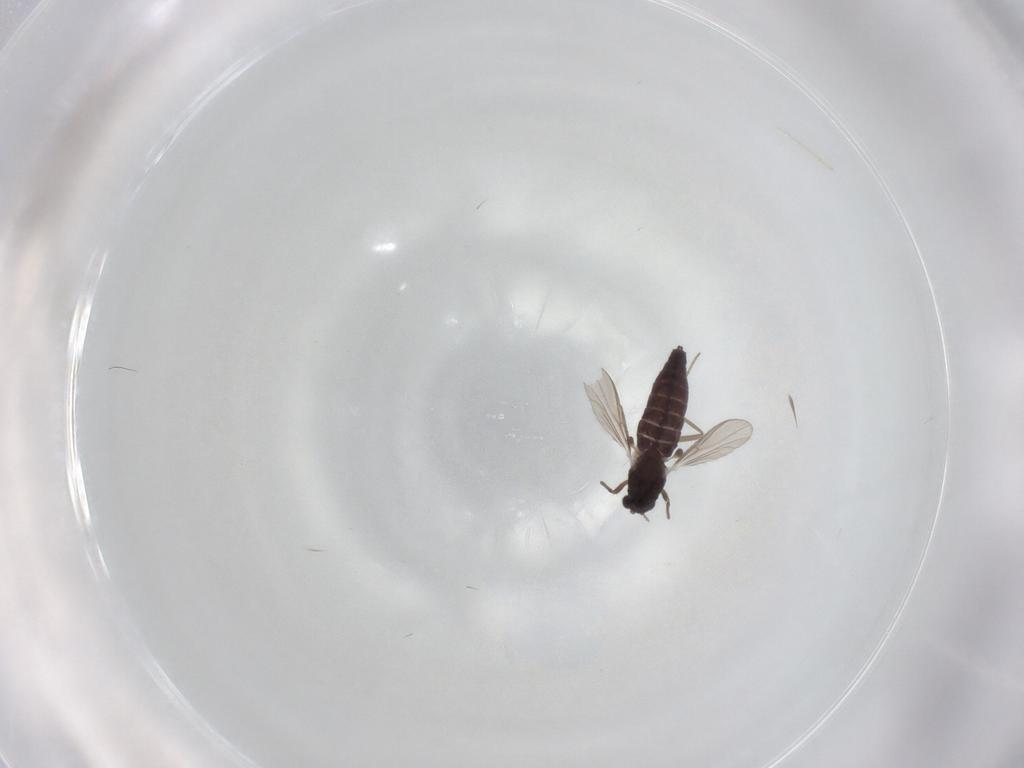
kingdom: Animalia
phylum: Arthropoda
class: Insecta
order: Diptera
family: Chironomidae
